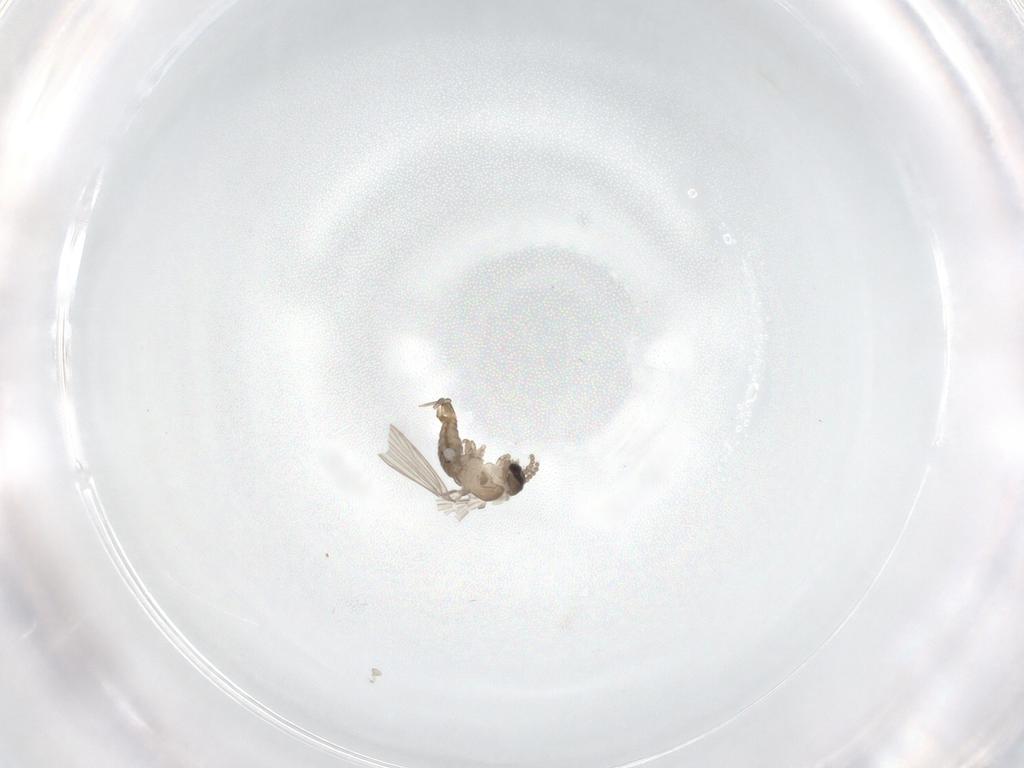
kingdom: Animalia
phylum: Arthropoda
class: Insecta
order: Diptera
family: Psychodidae
